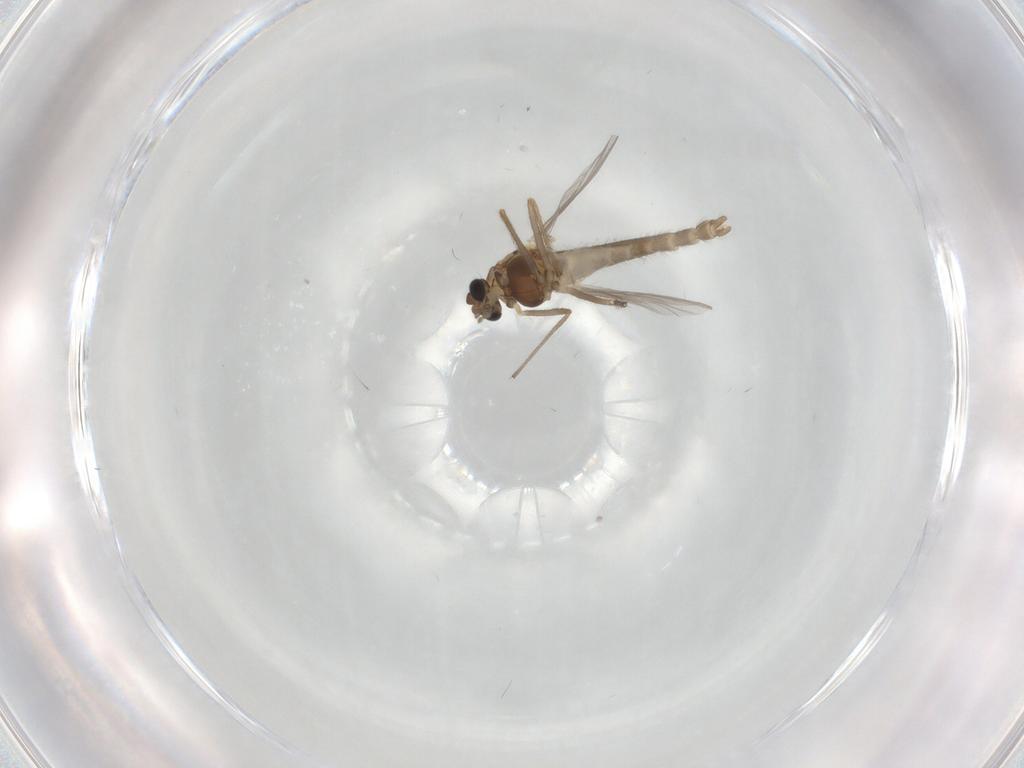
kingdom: Animalia
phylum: Arthropoda
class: Insecta
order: Diptera
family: Chironomidae
